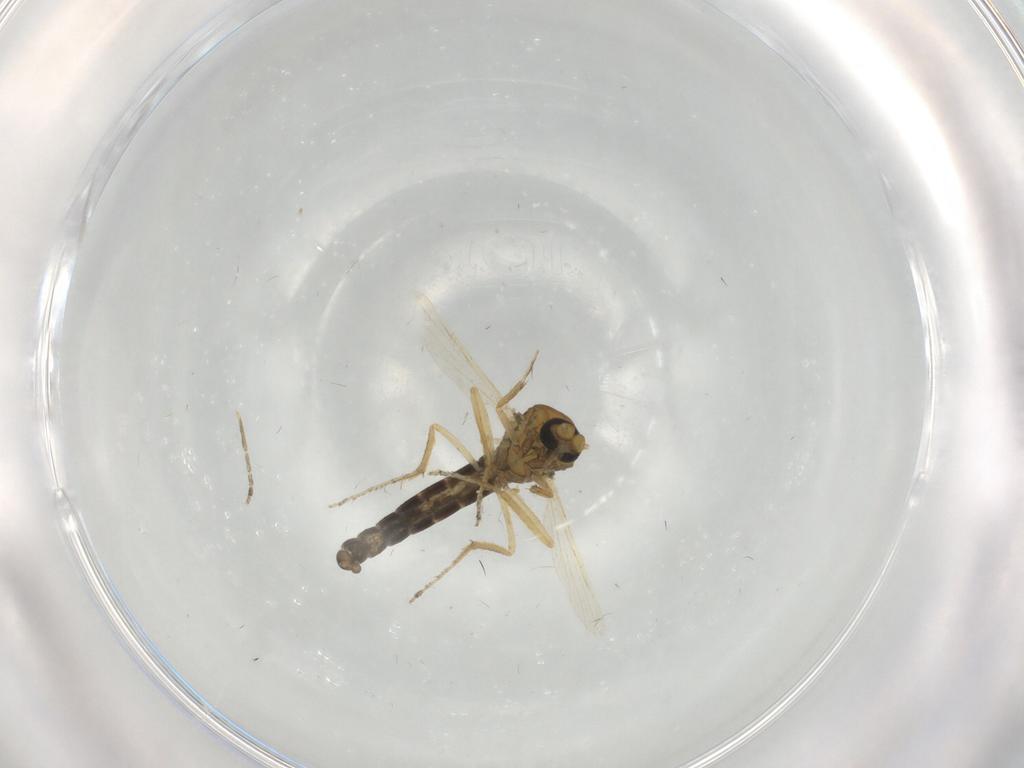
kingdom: Animalia
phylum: Arthropoda
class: Insecta
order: Diptera
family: Ceratopogonidae
